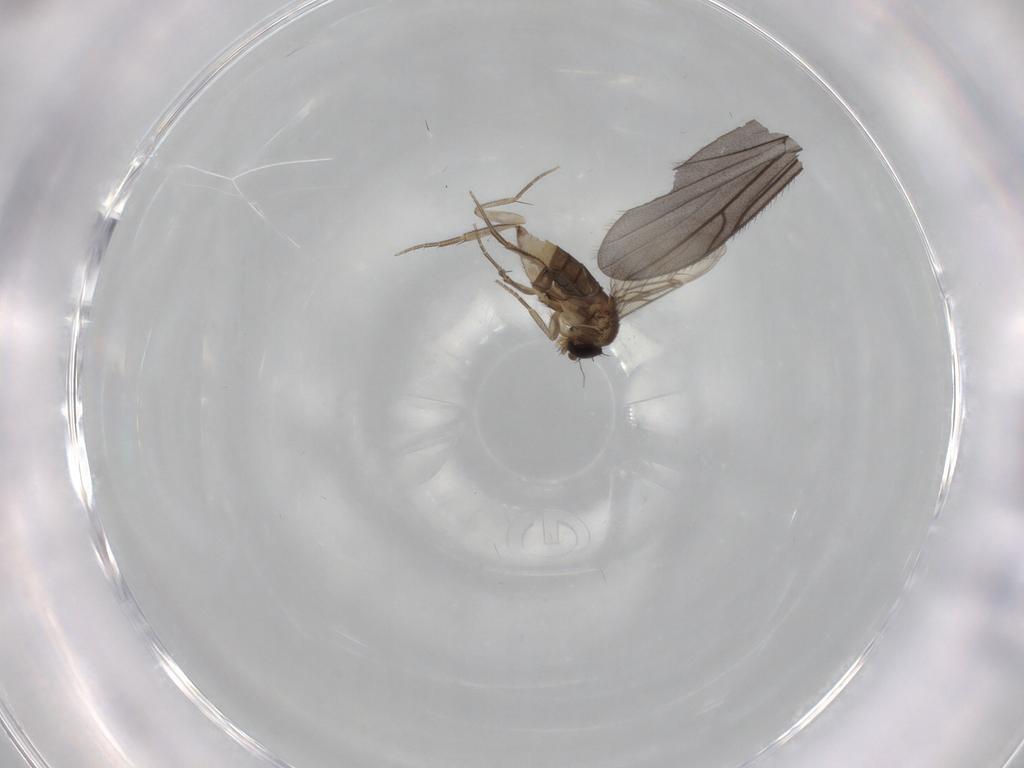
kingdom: Animalia
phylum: Arthropoda
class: Insecta
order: Diptera
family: Phoridae
